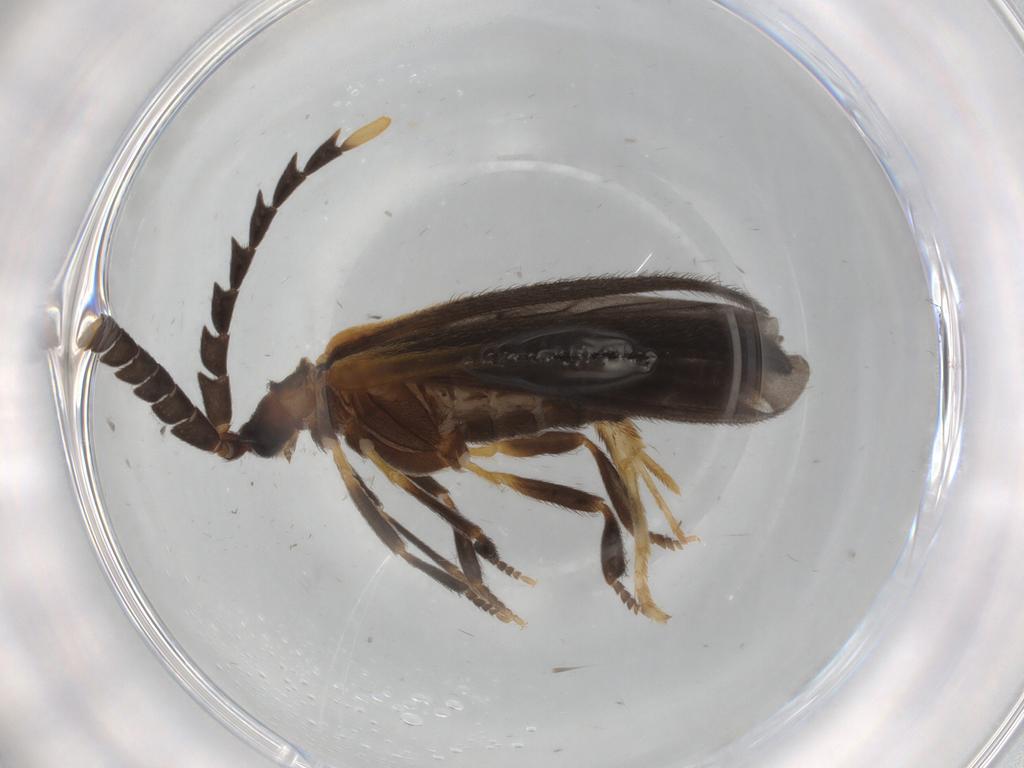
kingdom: Animalia
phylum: Arthropoda
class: Insecta
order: Coleoptera
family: Lycidae
